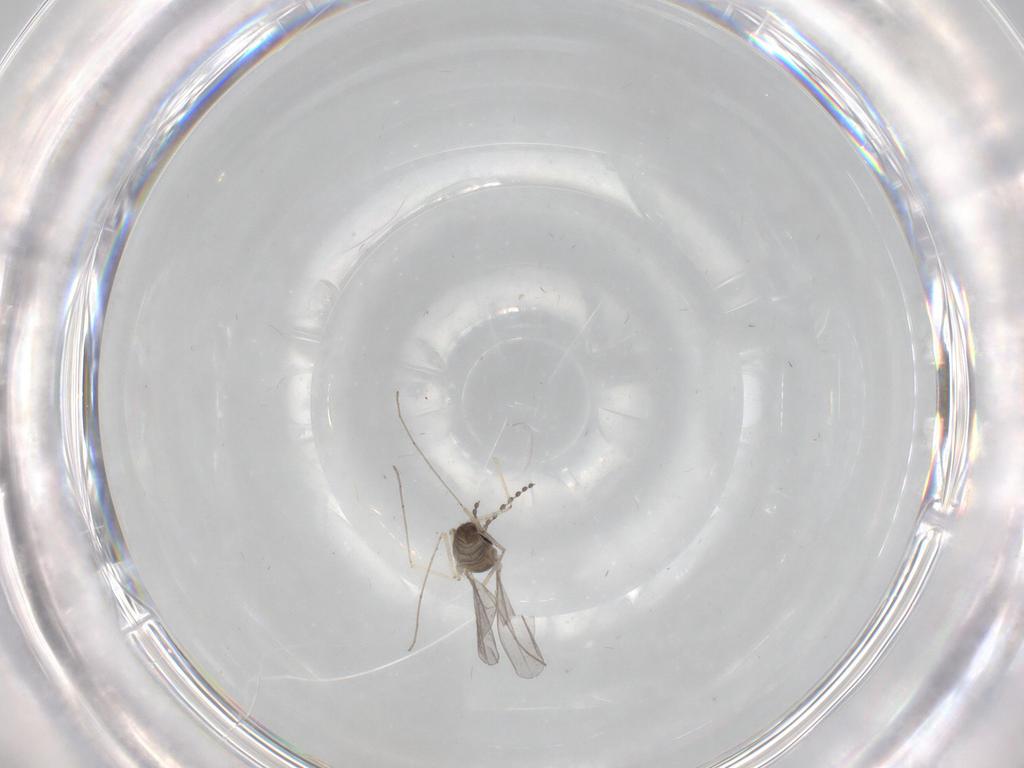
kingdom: Animalia
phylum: Arthropoda
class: Insecta
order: Diptera
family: Cecidomyiidae
